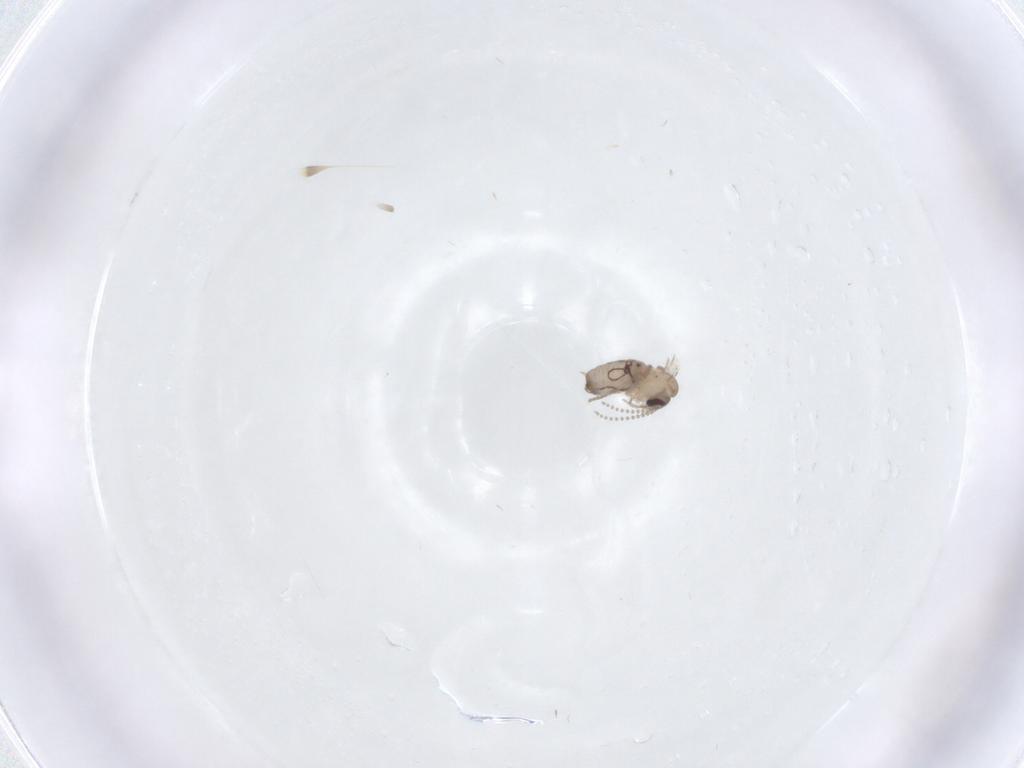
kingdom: Animalia
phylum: Arthropoda
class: Insecta
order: Diptera
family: Psychodidae
